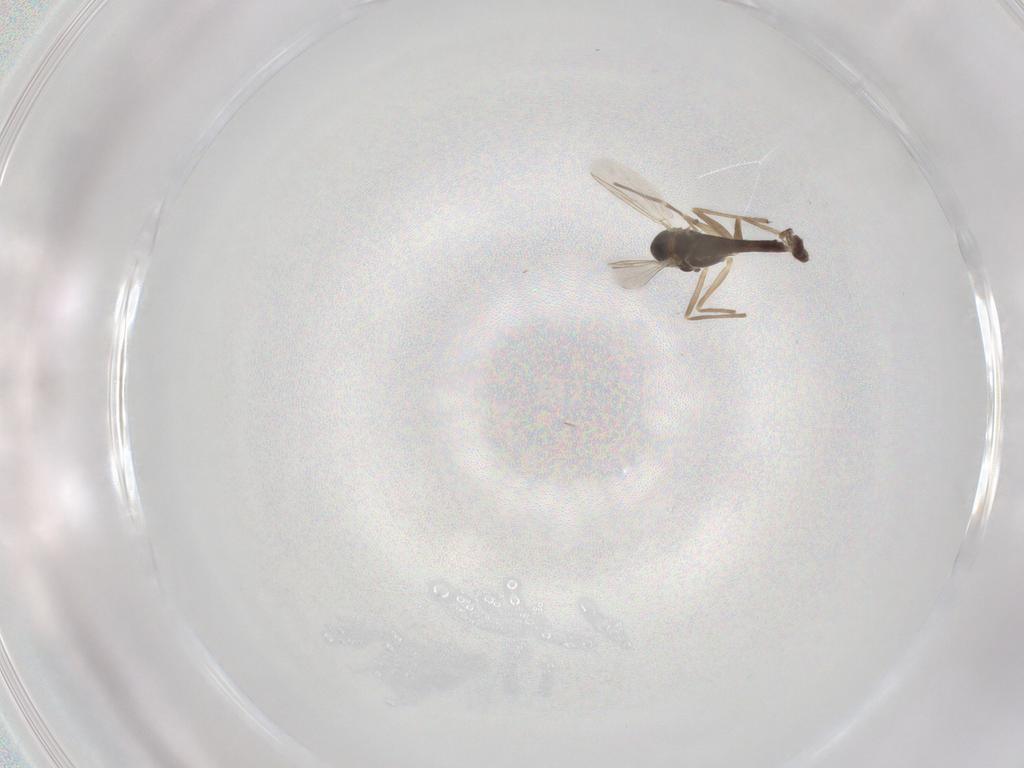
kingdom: Animalia
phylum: Arthropoda
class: Insecta
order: Diptera
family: Chironomidae
